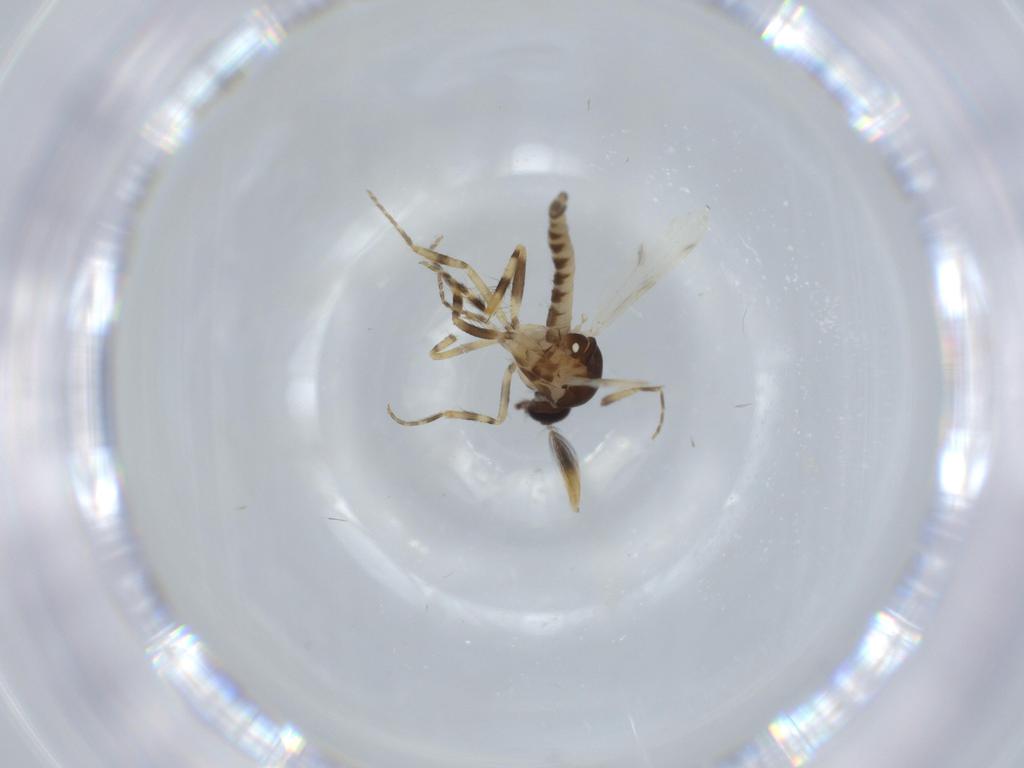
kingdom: Animalia
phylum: Arthropoda
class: Insecta
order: Diptera
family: Ceratopogonidae
